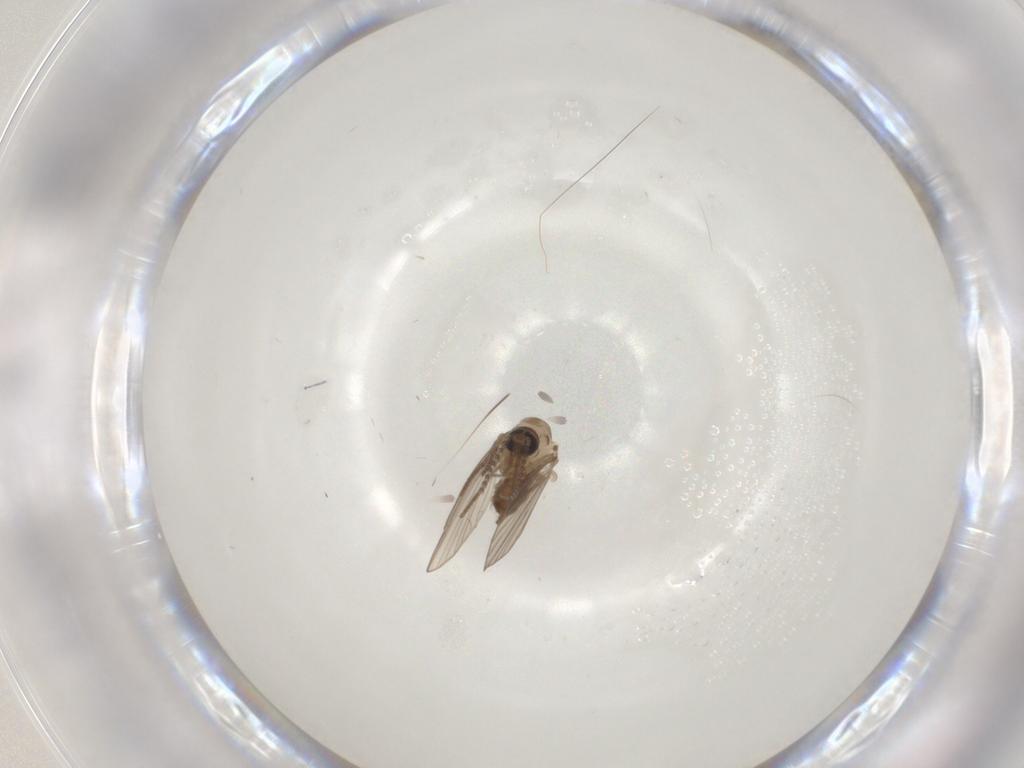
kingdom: Animalia
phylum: Arthropoda
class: Insecta
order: Diptera
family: Psychodidae
